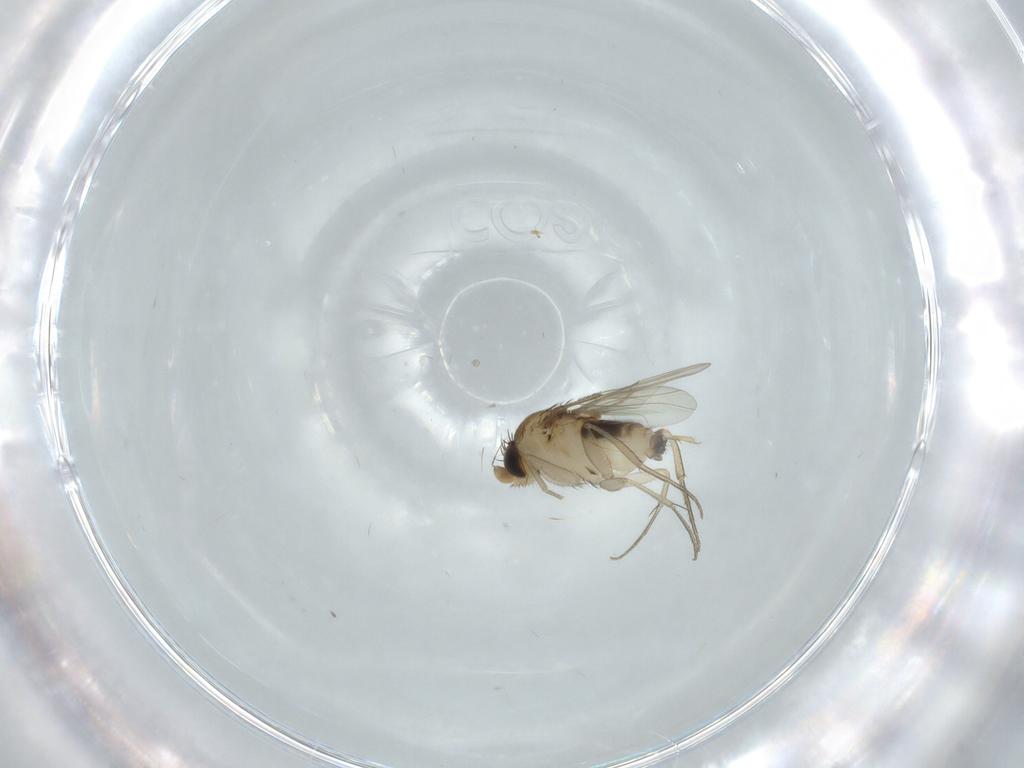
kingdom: Animalia
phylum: Arthropoda
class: Insecta
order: Diptera
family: Phoridae
